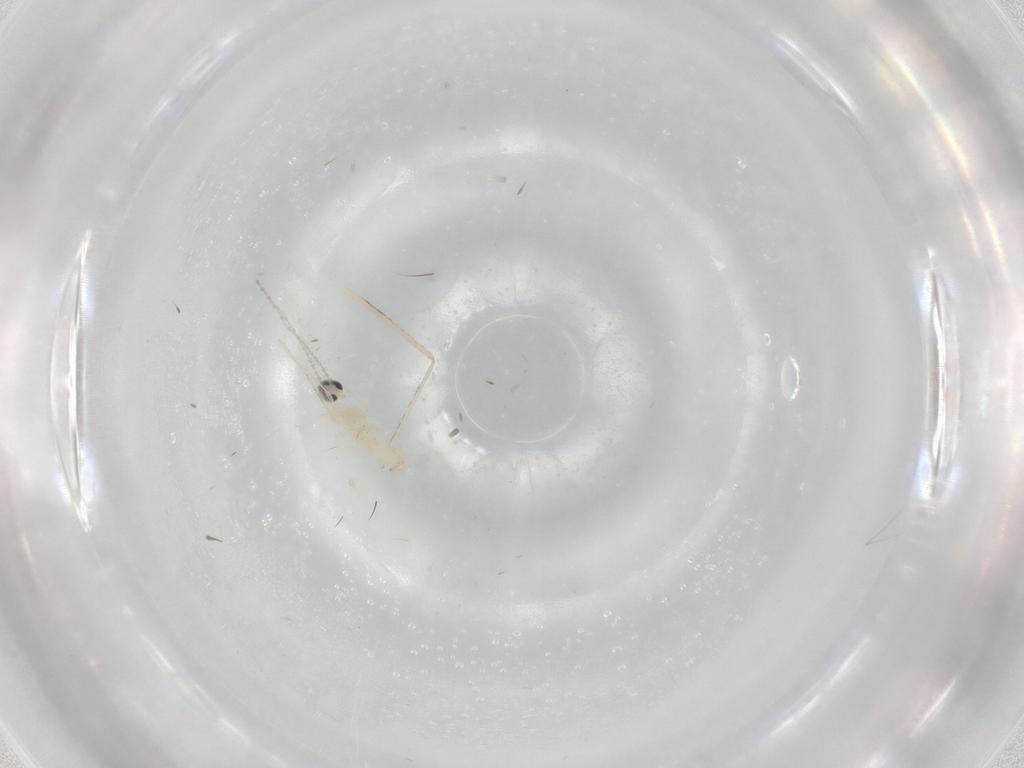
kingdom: Animalia
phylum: Arthropoda
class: Insecta
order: Diptera
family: Cecidomyiidae
